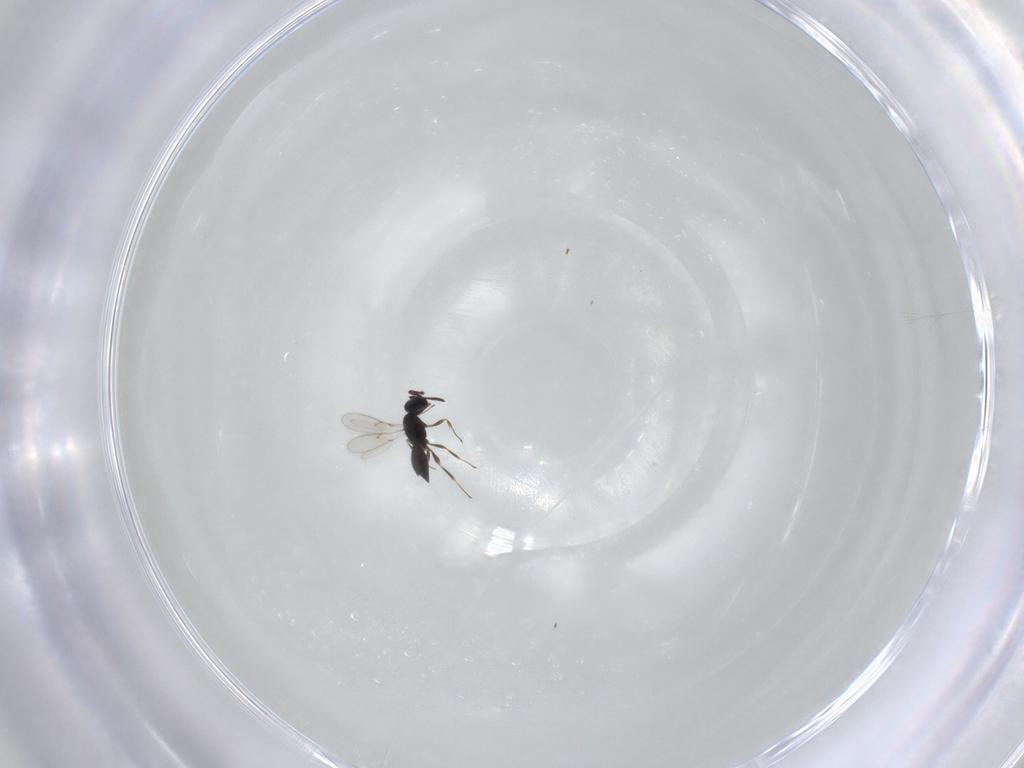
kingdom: Animalia
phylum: Arthropoda
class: Insecta
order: Hymenoptera
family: Scelionidae
